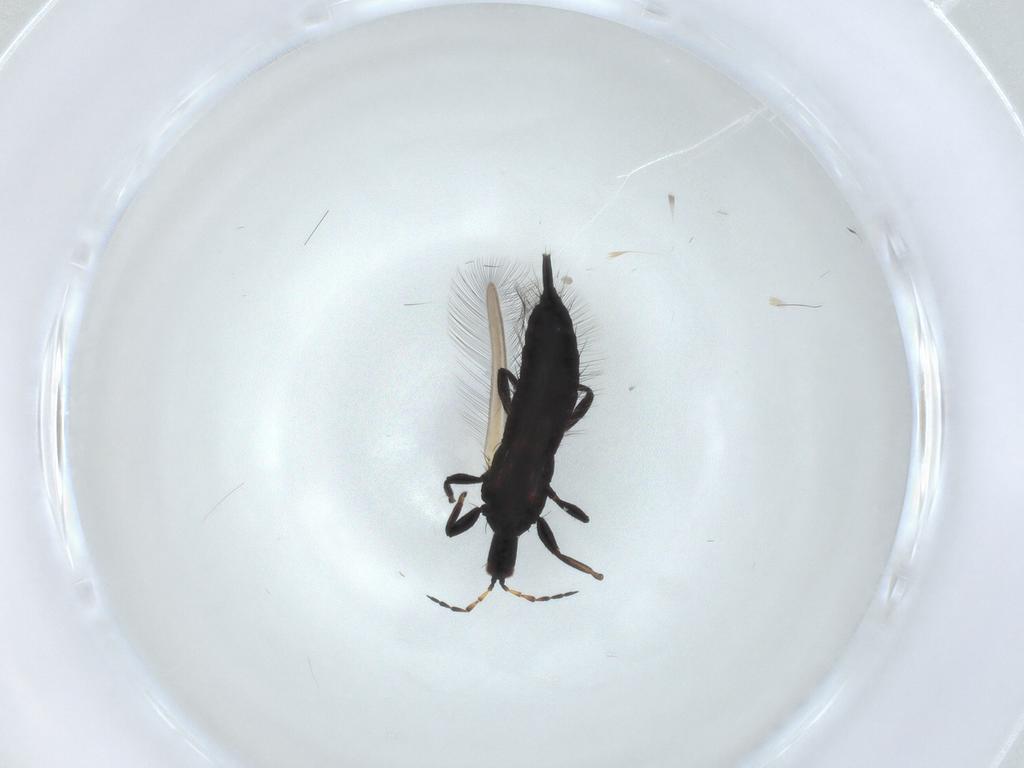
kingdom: Animalia
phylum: Arthropoda
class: Insecta
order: Thysanoptera
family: Phlaeothripidae
